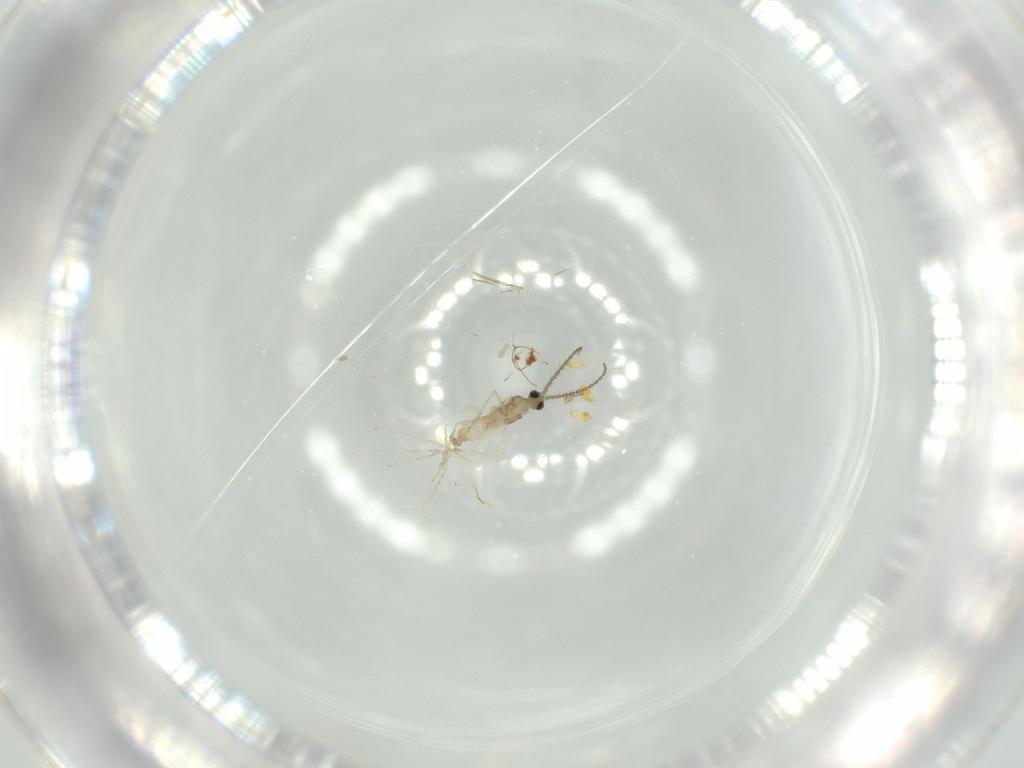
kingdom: Animalia
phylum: Arthropoda
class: Insecta
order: Diptera
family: Cecidomyiidae
